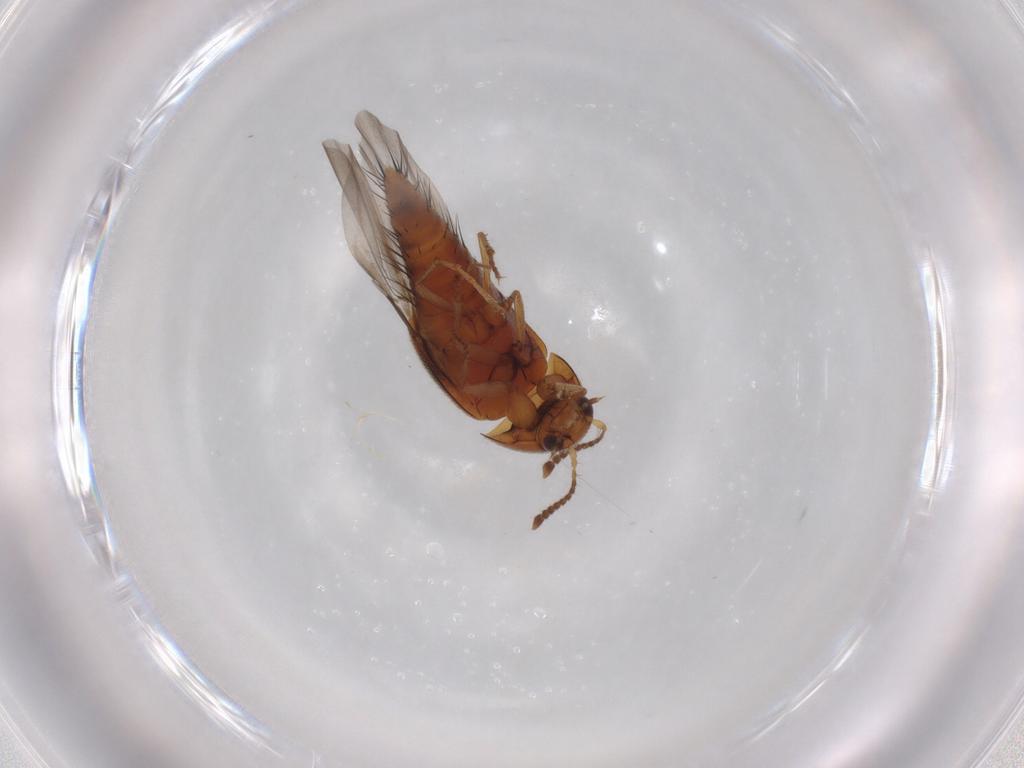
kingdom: Animalia
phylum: Arthropoda
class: Insecta
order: Coleoptera
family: Staphylinidae
